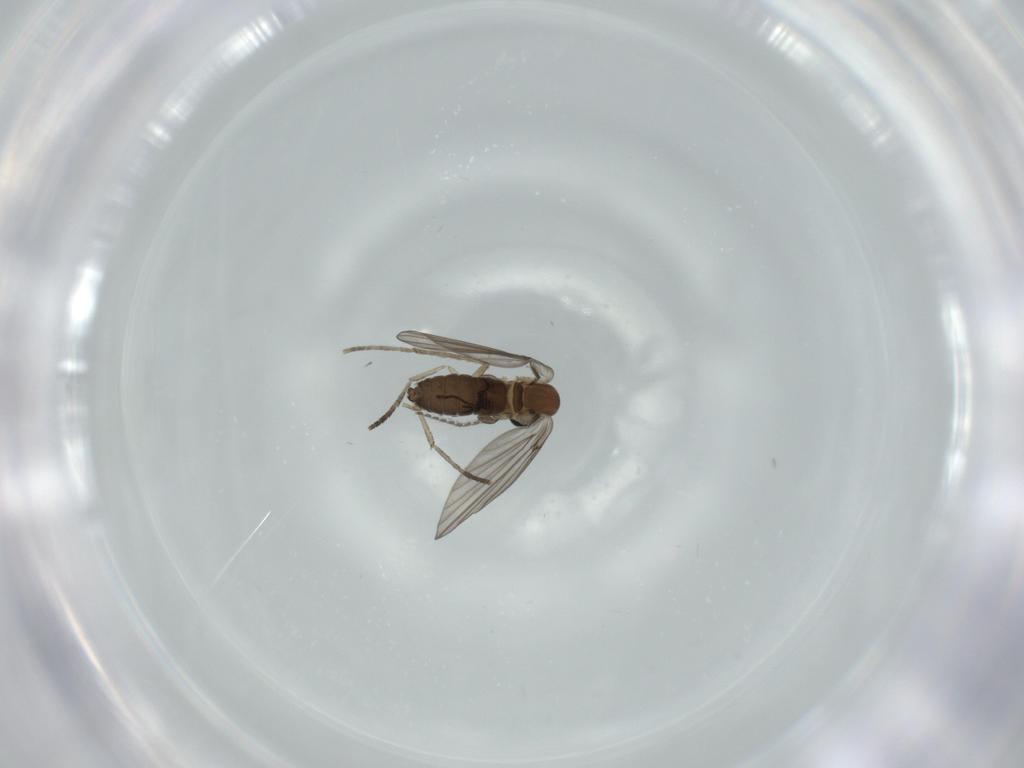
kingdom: Animalia
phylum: Arthropoda
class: Insecta
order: Diptera
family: Psychodidae
